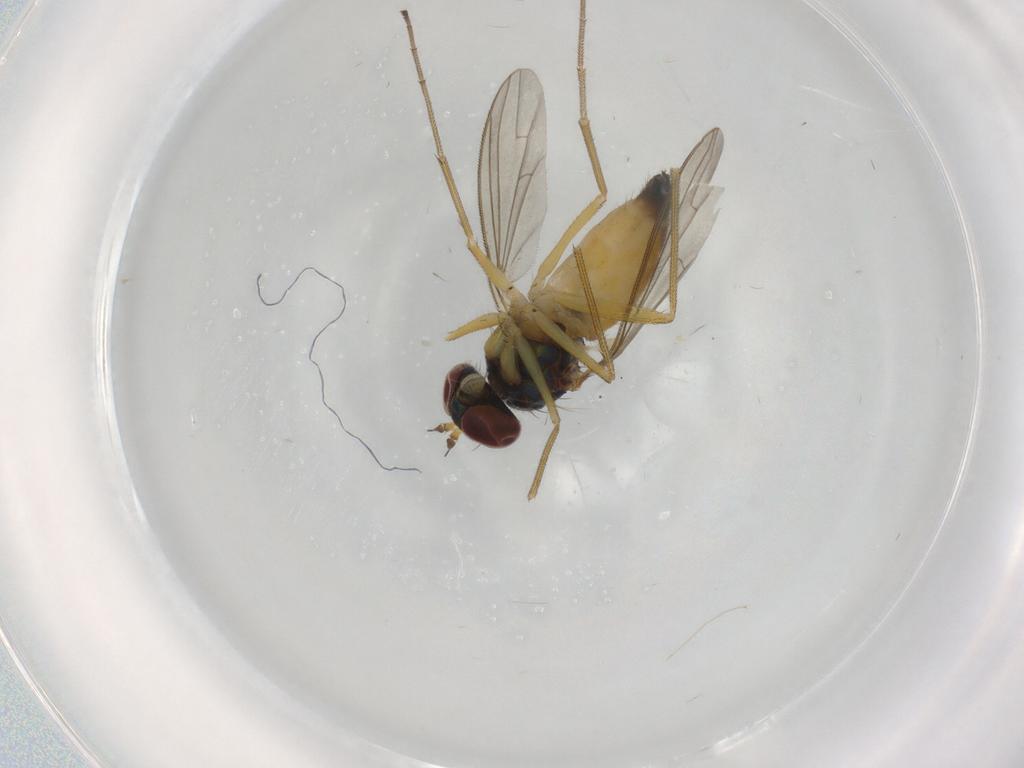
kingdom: Animalia
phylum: Arthropoda
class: Insecta
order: Diptera
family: Dolichopodidae
